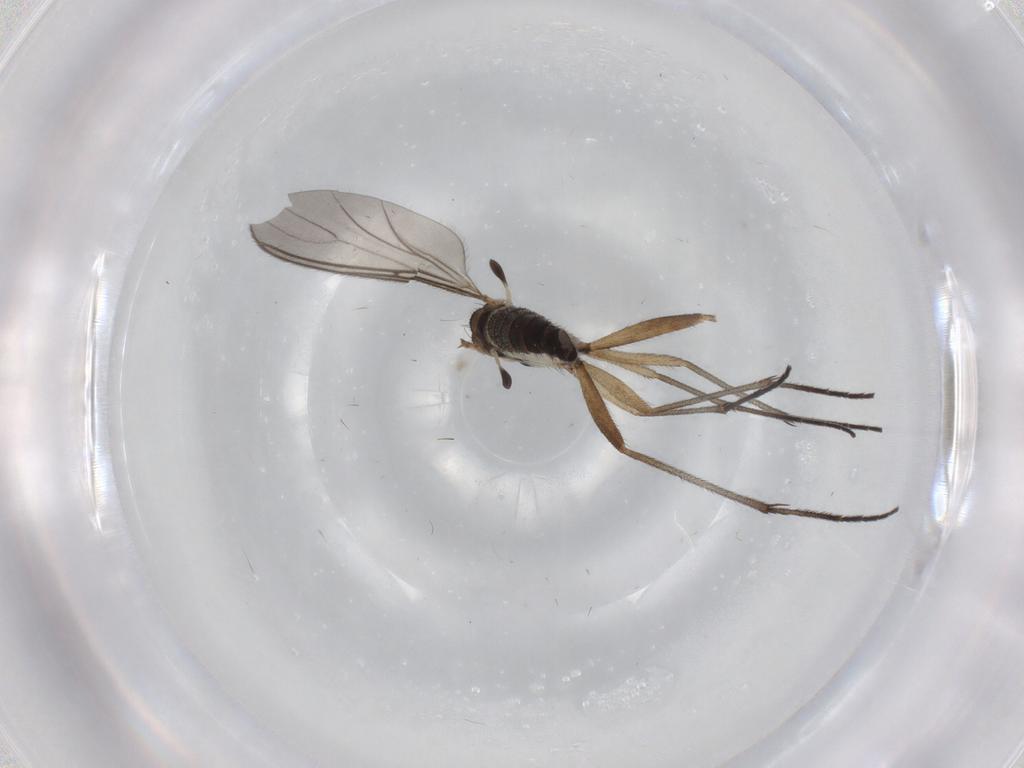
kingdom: Animalia
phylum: Arthropoda
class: Insecta
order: Diptera
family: Sciaridae
